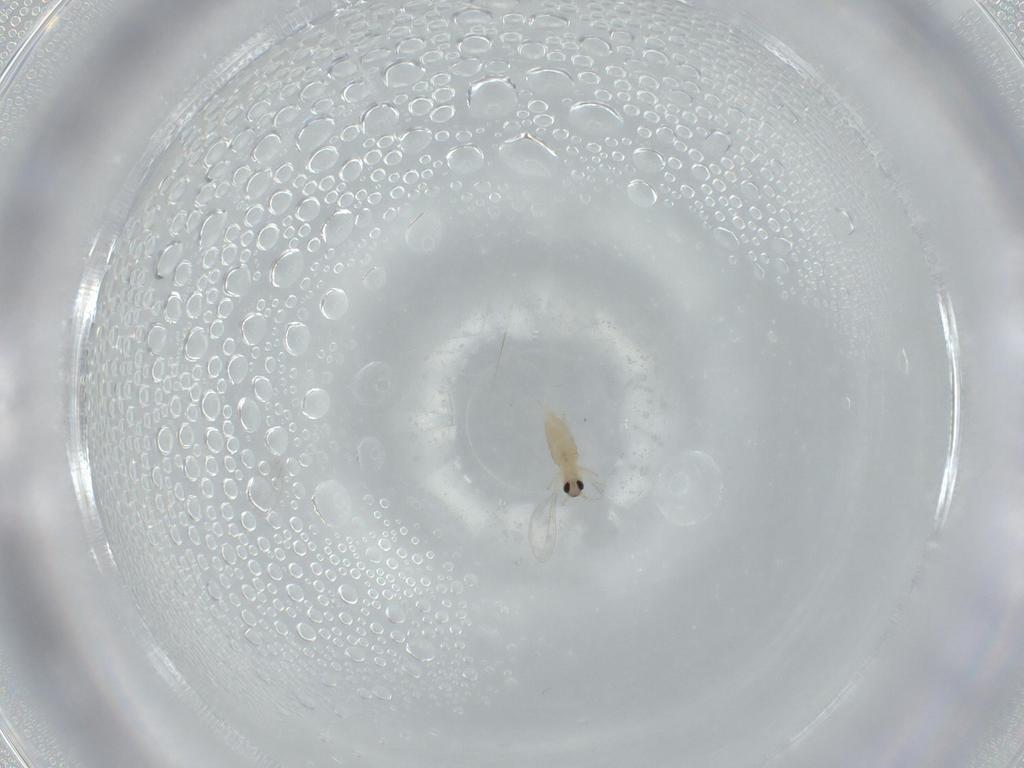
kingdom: Animalia
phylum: Arthropoda
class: Insecta
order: Diptera
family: Cecidomyiidae
